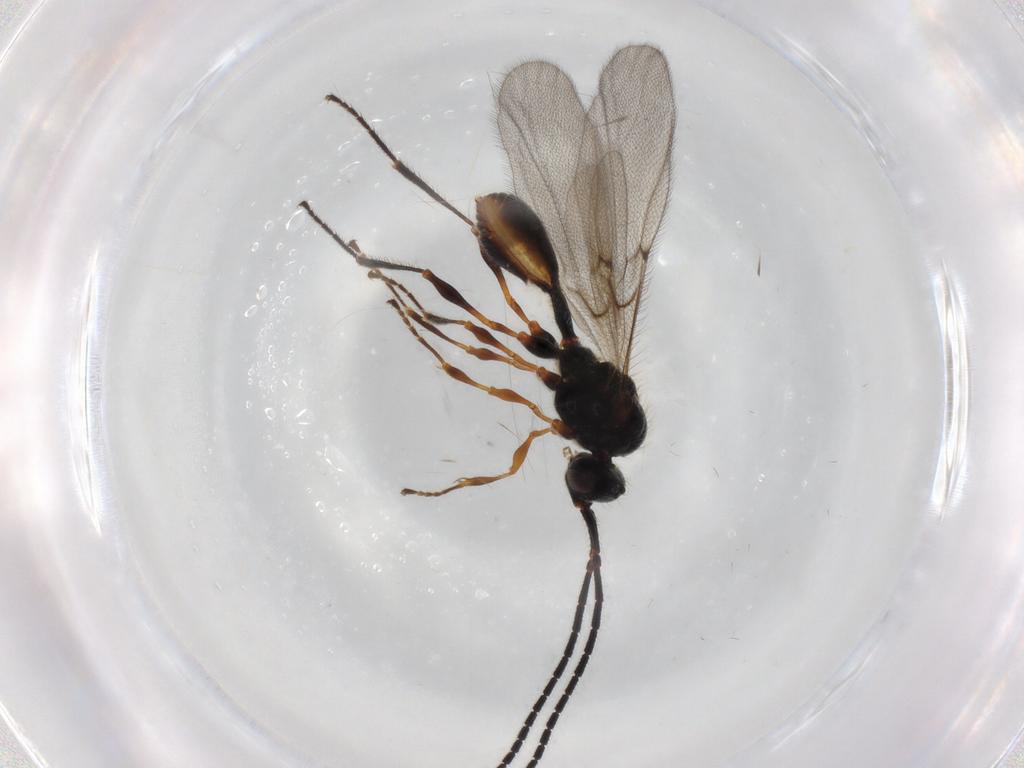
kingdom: Animalia
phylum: Arthropoda
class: Insecta
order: Hymenoptera
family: Diapriidae
